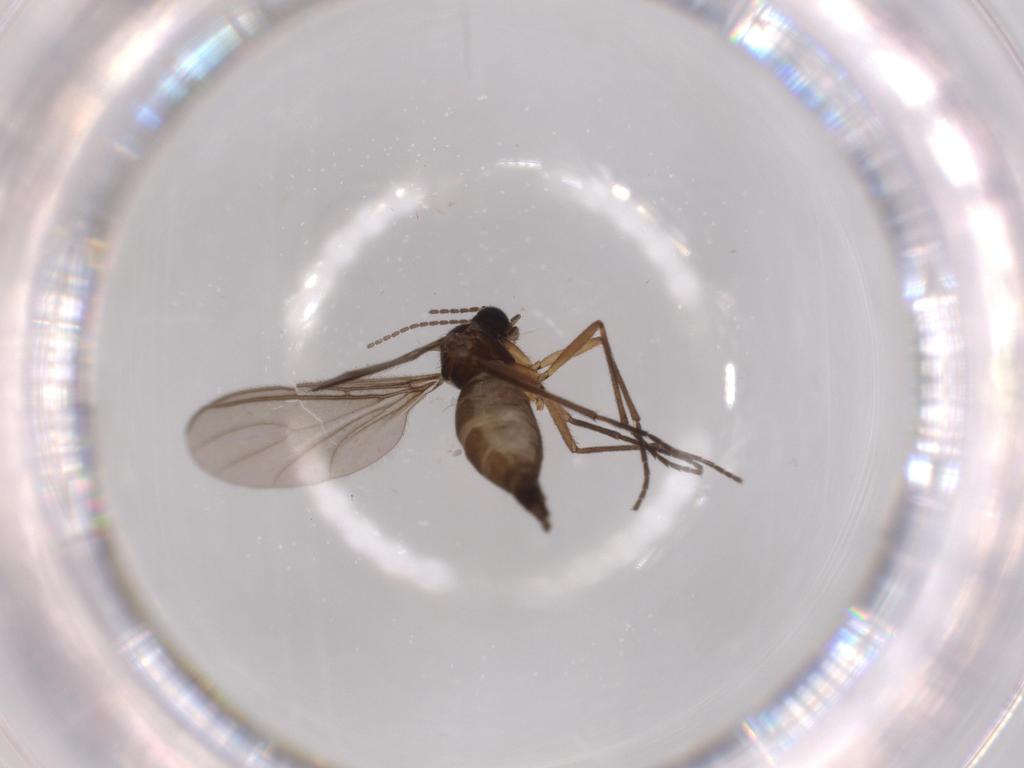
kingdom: Animalia
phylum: Arthropoda
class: Insecta
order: Diptera
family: Sciaridae
